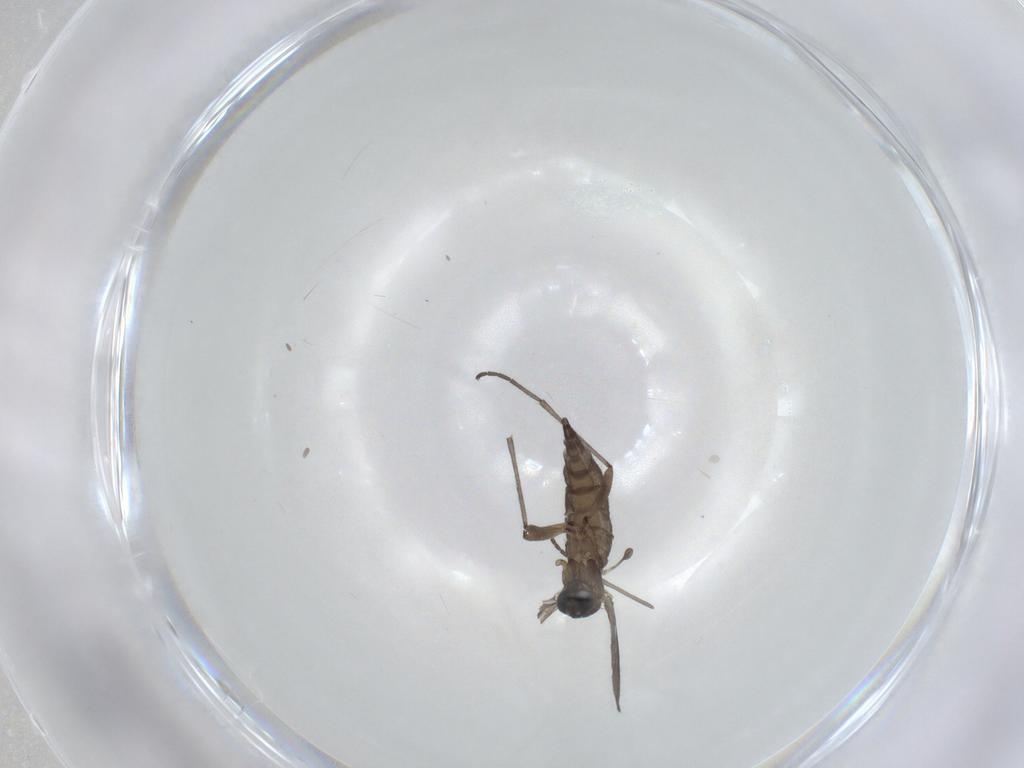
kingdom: Animalia
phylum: Arthropoda
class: Insecta
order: Diptera
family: Sciaridae
